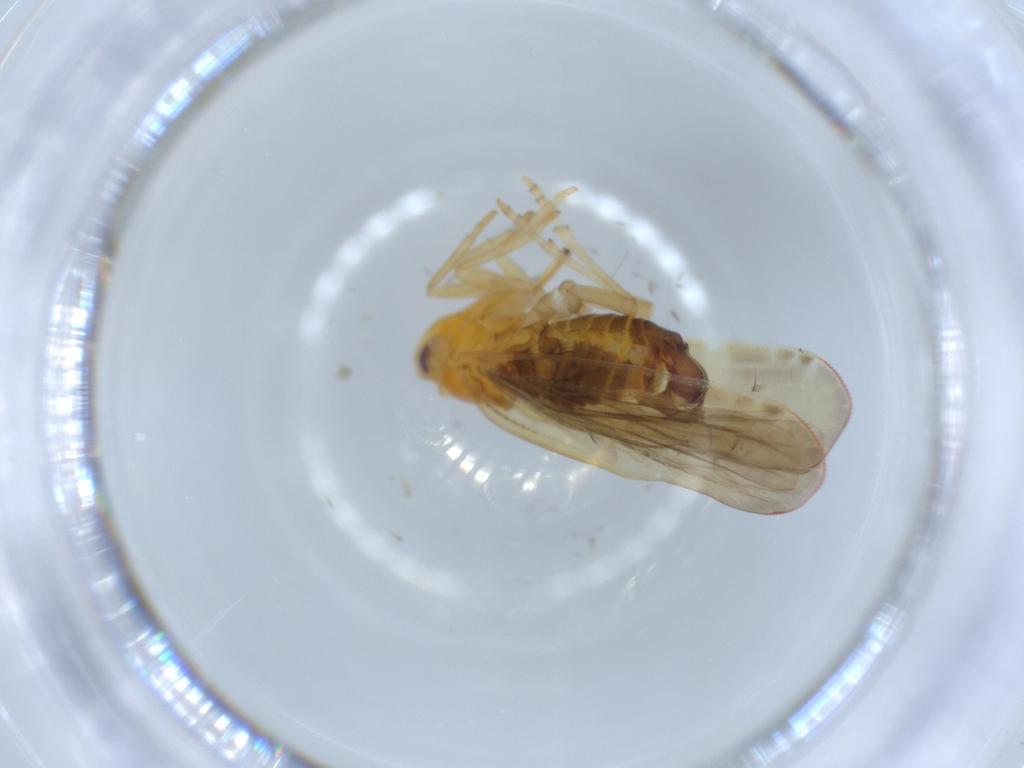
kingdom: Animalia
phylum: Arthropoda
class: Insecta
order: Hemiptera
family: Derbidae
